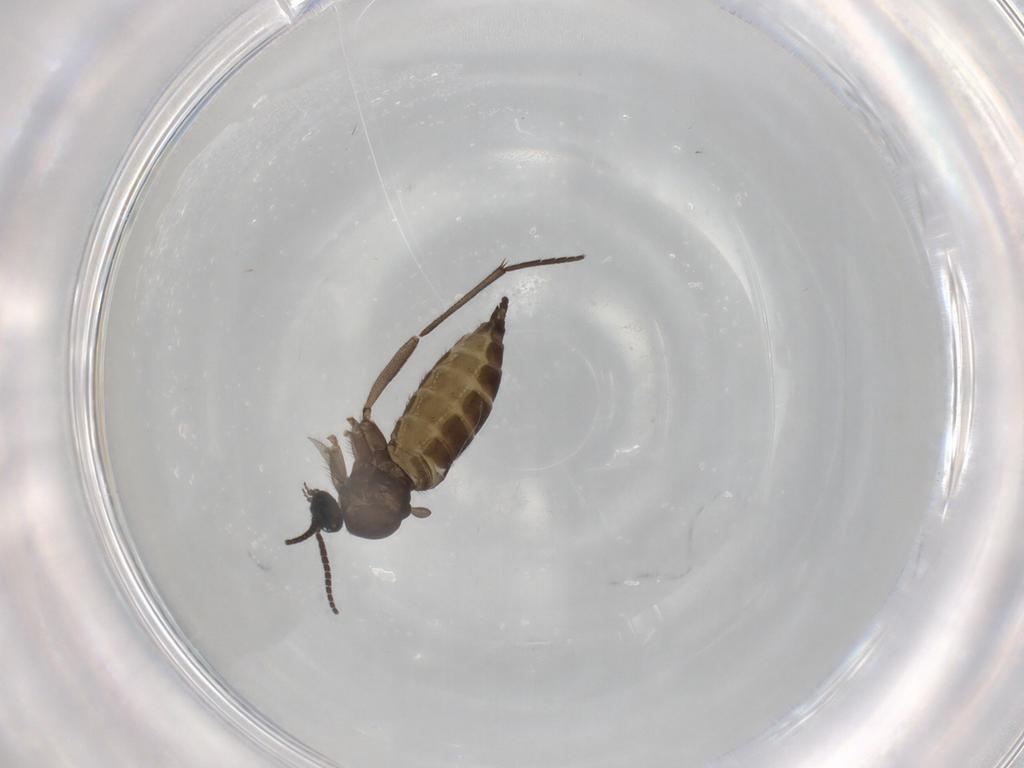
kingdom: Animalia
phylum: Arthropoda
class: Insecta
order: Diptera
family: Sciaridae
